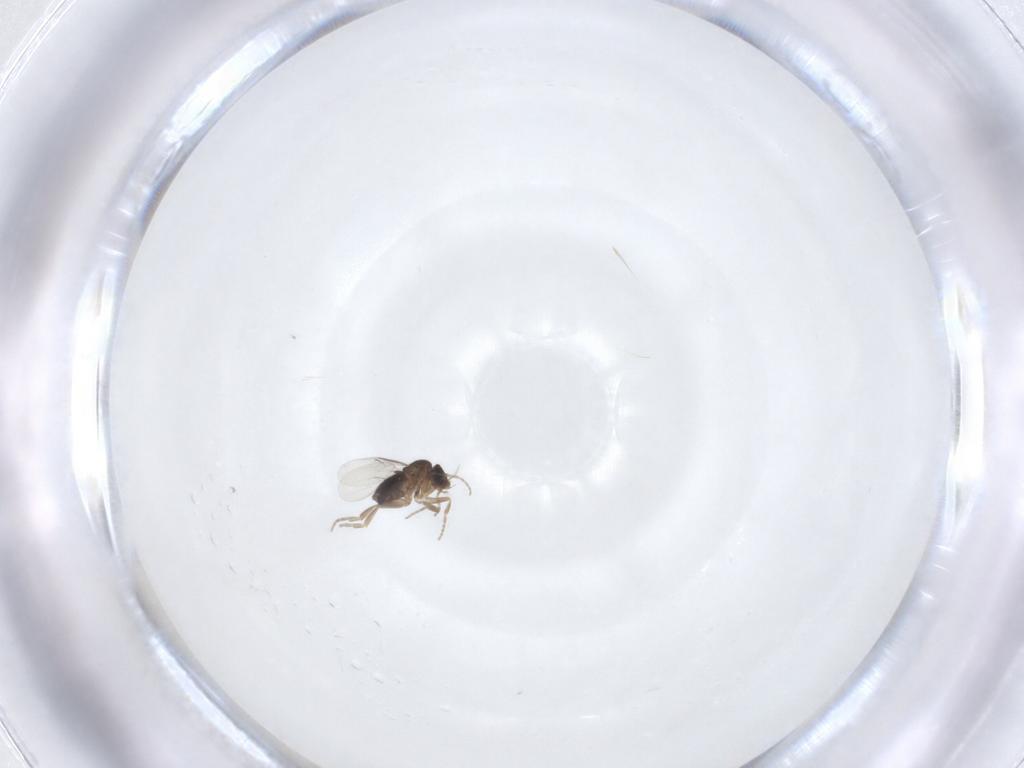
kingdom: Animalia
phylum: Arthropoda
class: Insecta
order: Diptera
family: Phoridae
